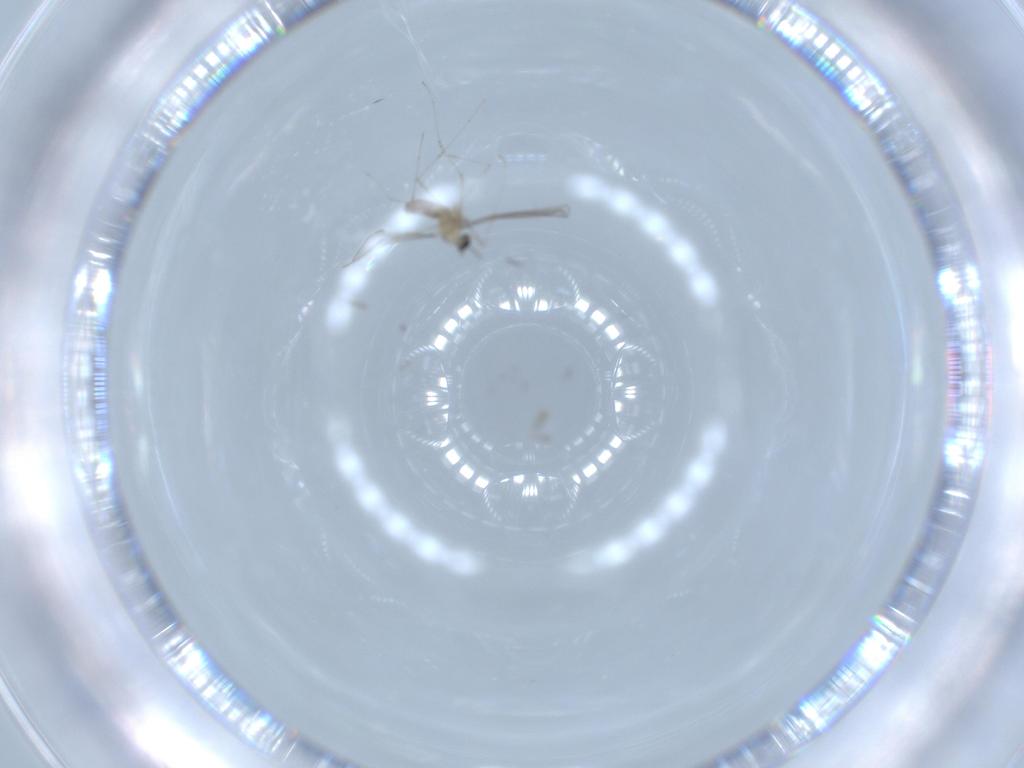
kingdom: Animalia
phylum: Arthropoda
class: Insecta
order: Diptera
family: Cecidomyiidae
